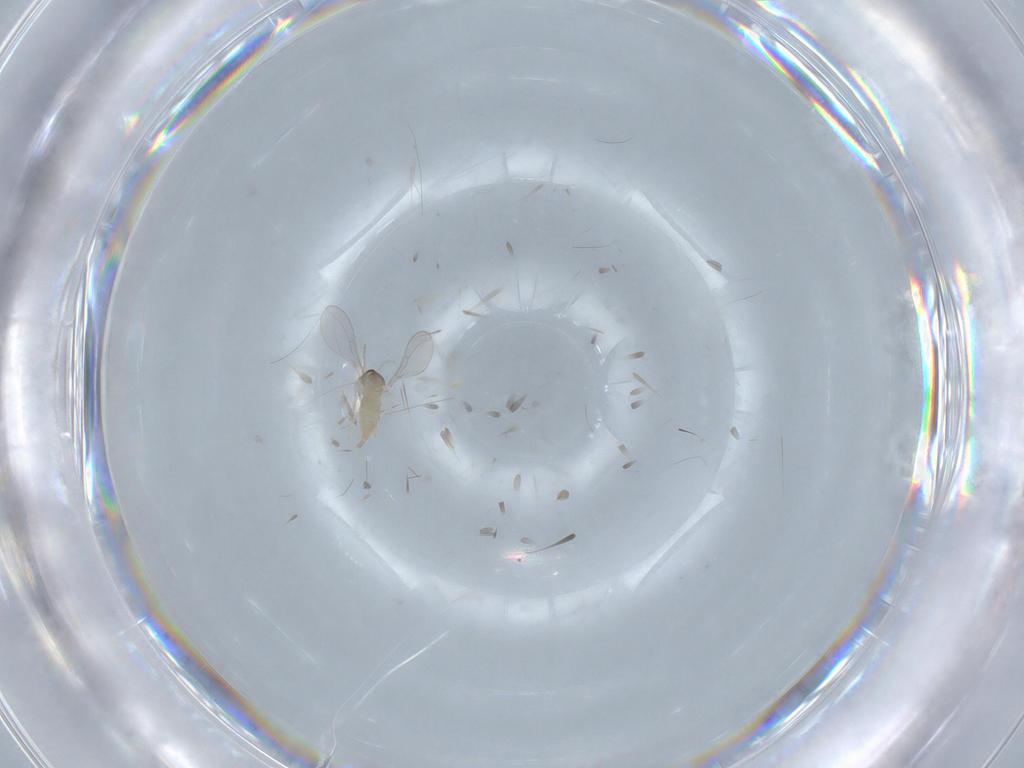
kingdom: Animalia
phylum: Arthropoda
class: Insecta
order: Diptera
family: Cecidomyiidae
